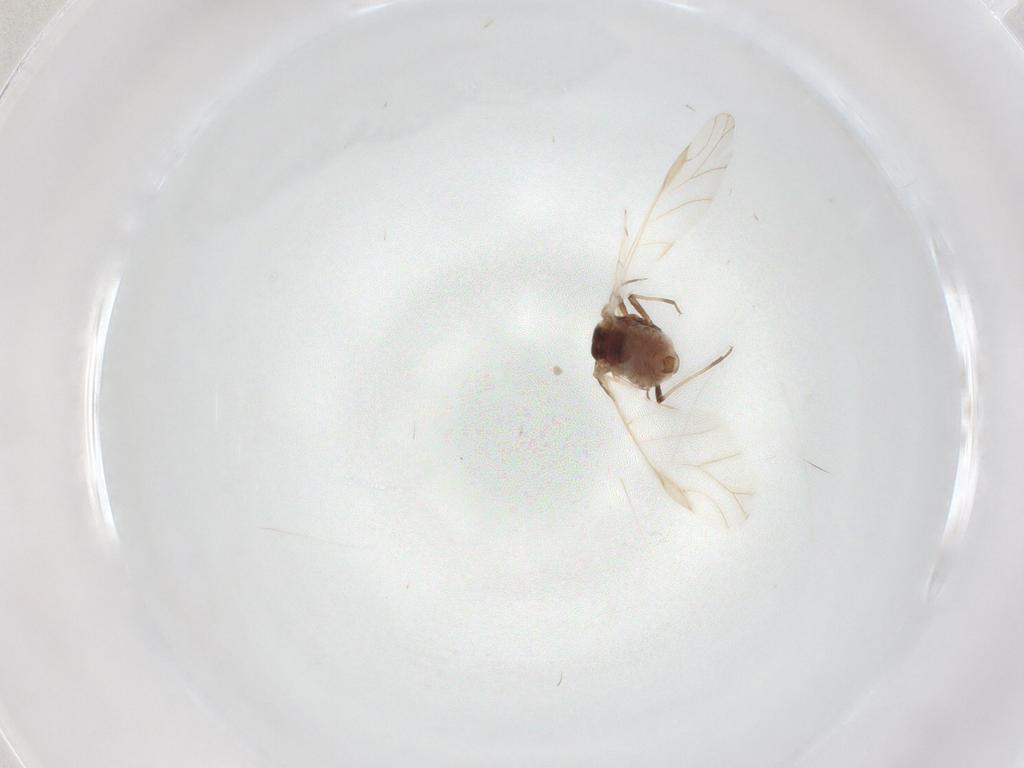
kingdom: Animalia
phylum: Arthropoda
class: Insecta
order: Hemiptera
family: Aphididae
